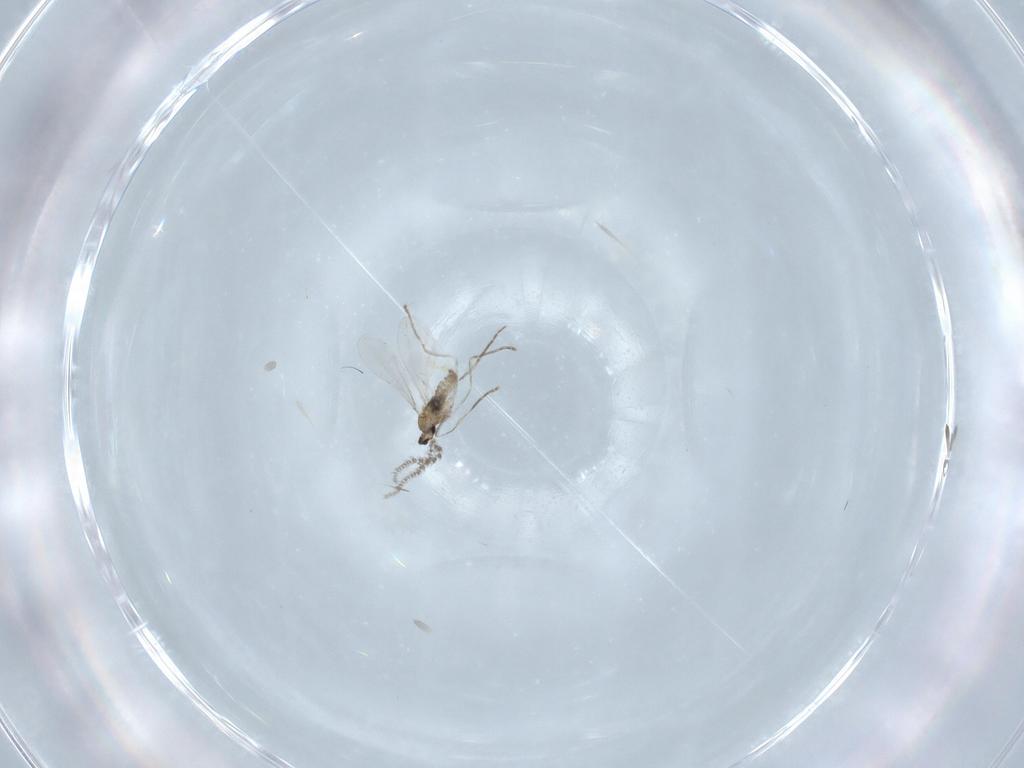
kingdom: Animalia
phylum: Arthropoda
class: Insecta
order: Diptera
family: Cecidomyiidae
